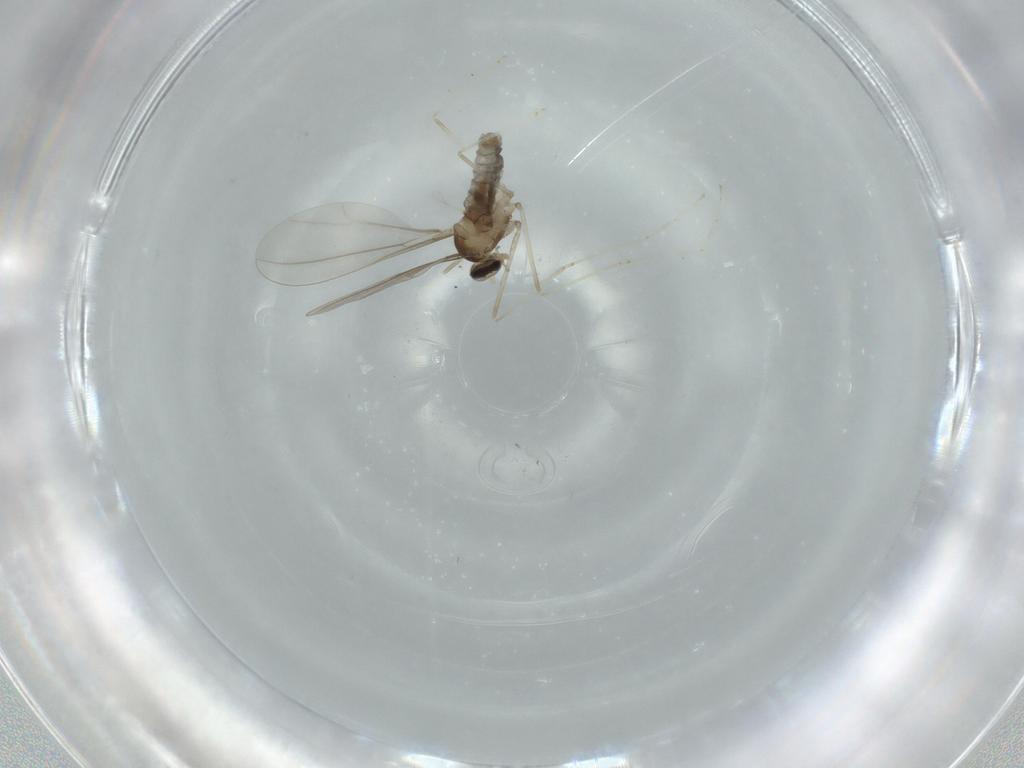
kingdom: Animalia
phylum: Arthropoda
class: Insecta
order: Diptera
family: Cecidomyiidae
